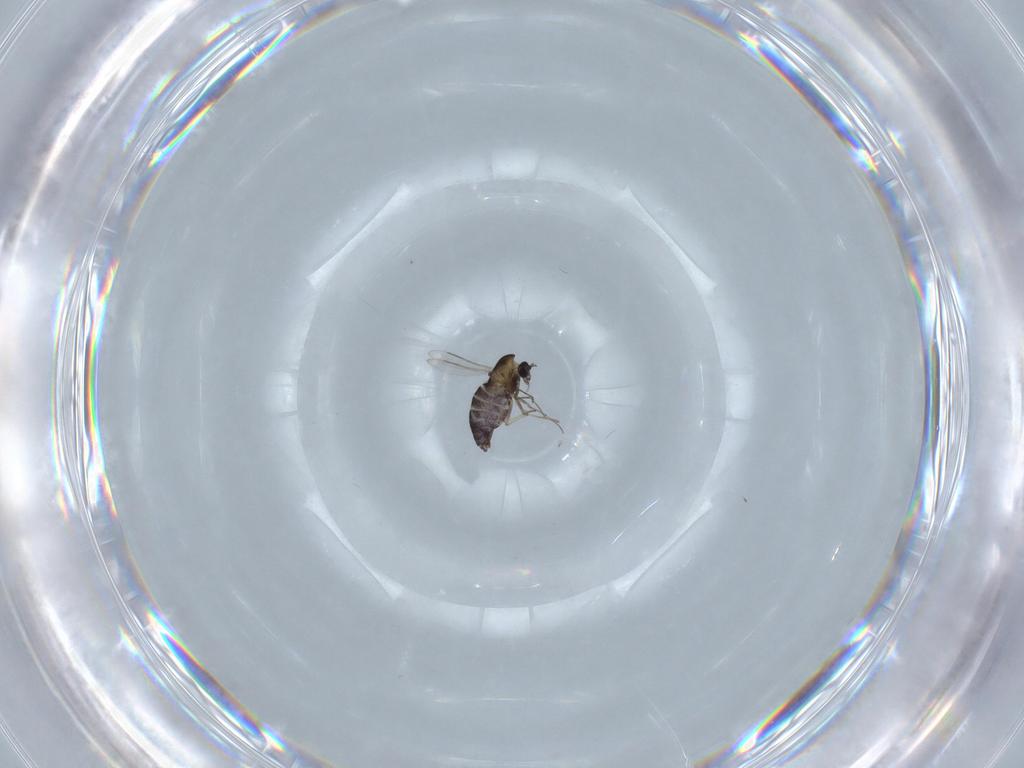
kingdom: Animalia
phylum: Arthropoda
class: Insecta
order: Diptera
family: Chironomidae
